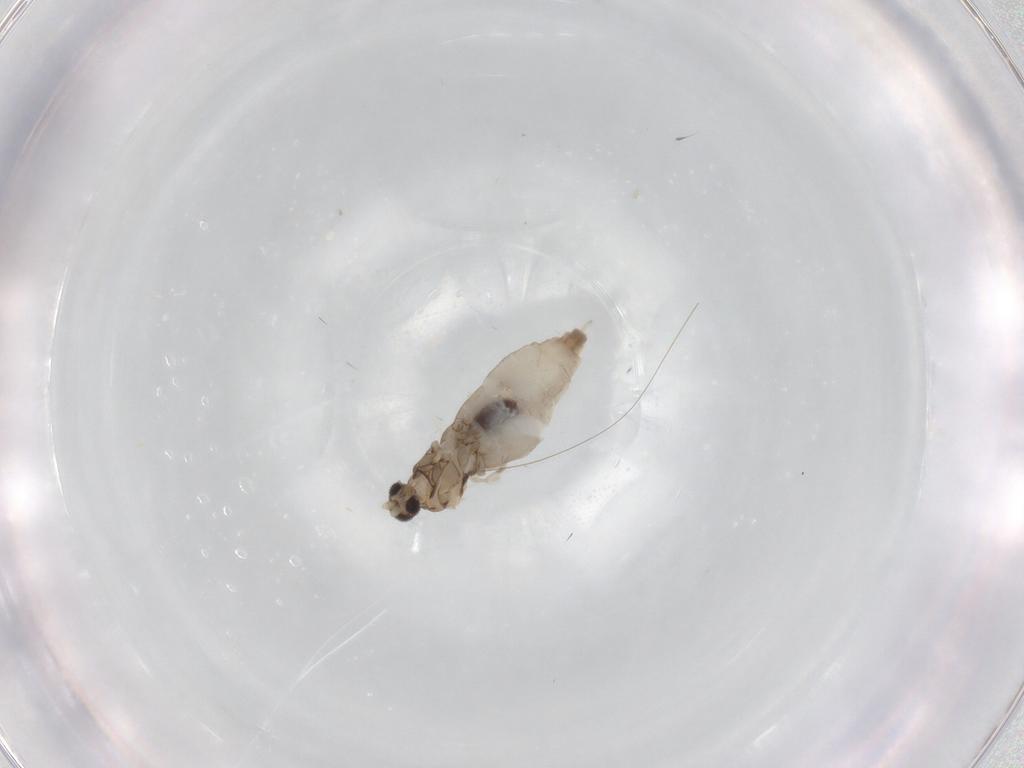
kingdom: Animalia
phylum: Arthropoda
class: Insecta
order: Diptera
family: Cecidomyiidae
